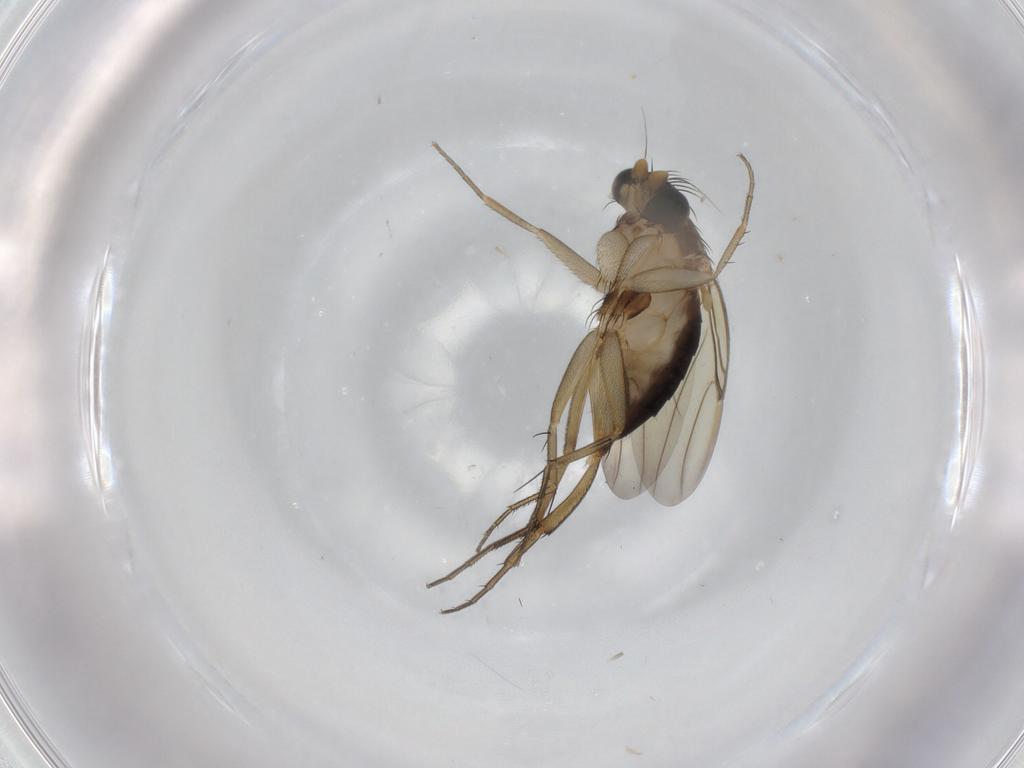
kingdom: Animalia
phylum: Arthropoda
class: Insecta
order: Diptera
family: Sciaridae
